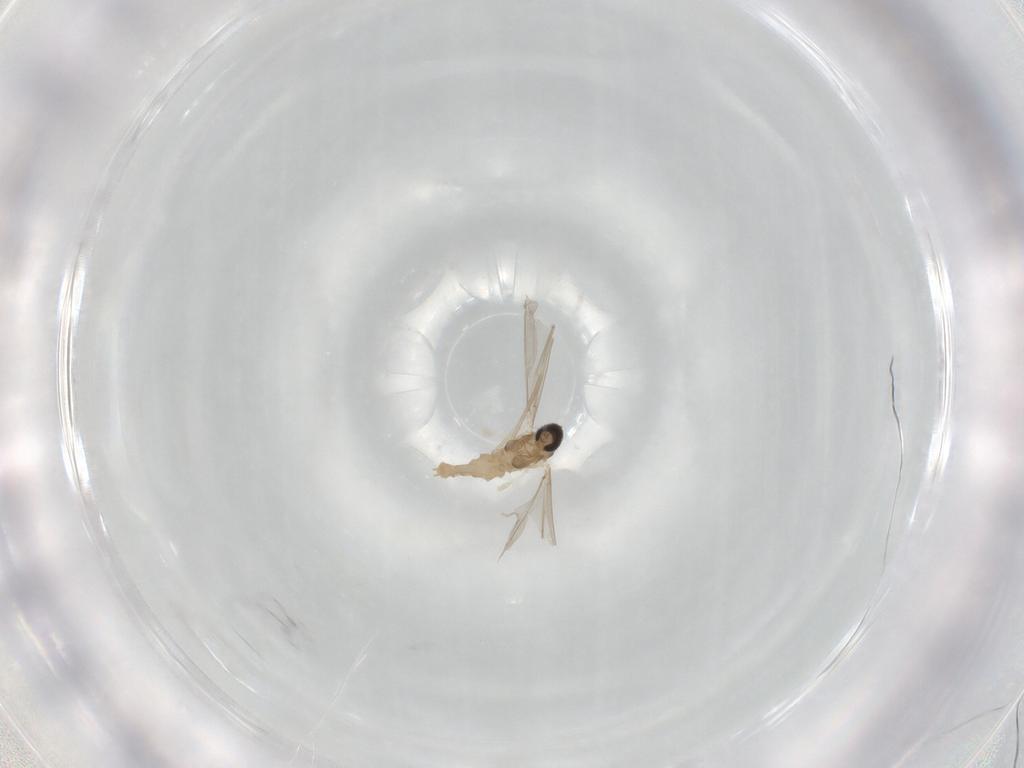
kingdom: Animalia
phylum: Arthropoda
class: Insecta
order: Diptera
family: Cecidomyiidae
